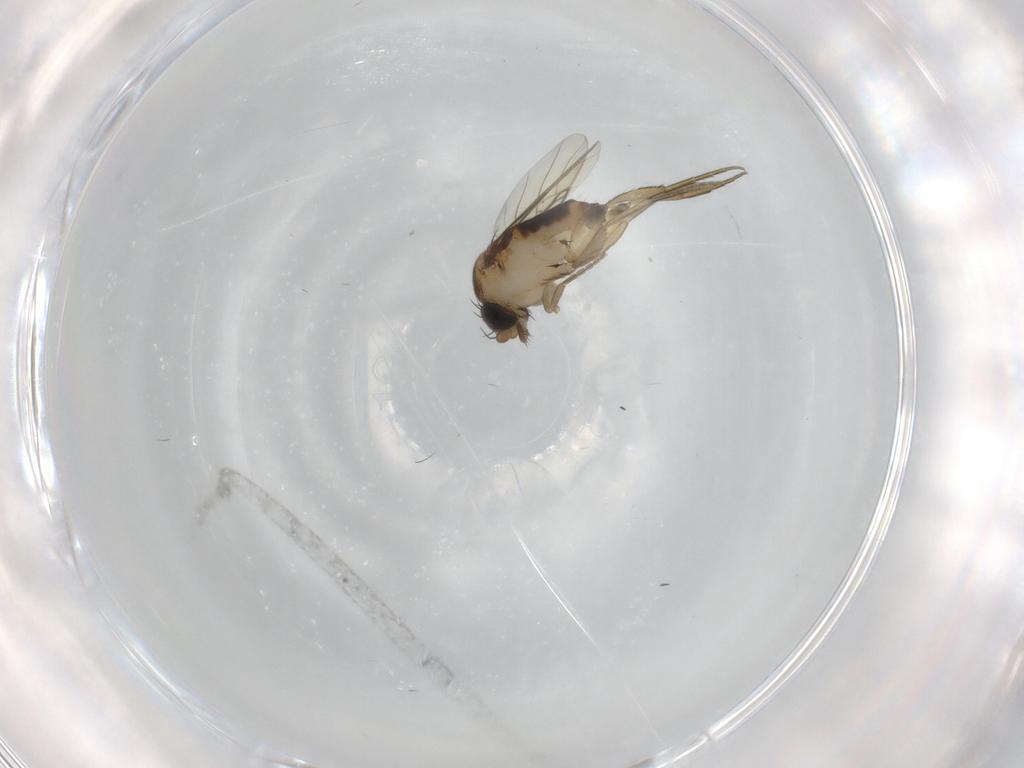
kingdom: Animalia
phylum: Arthropoda
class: Insecta
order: Diptera
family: Phoridae
